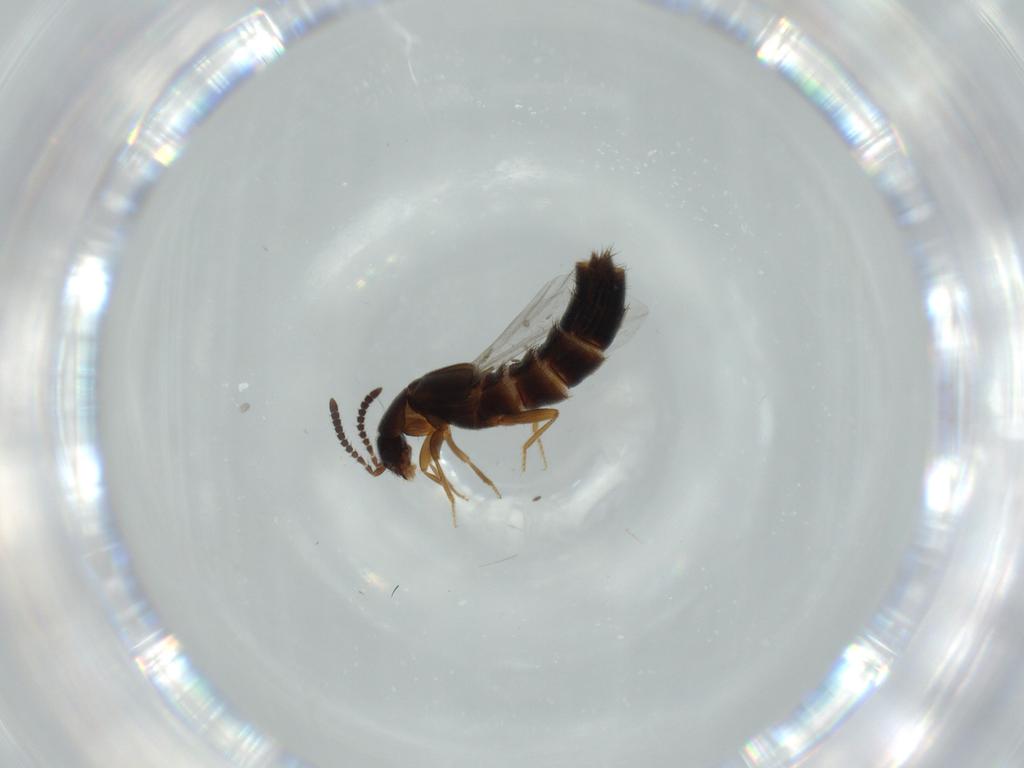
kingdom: Animalia
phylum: Arthropoda
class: Insecta
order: Coleoptera
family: Staphylinidae
